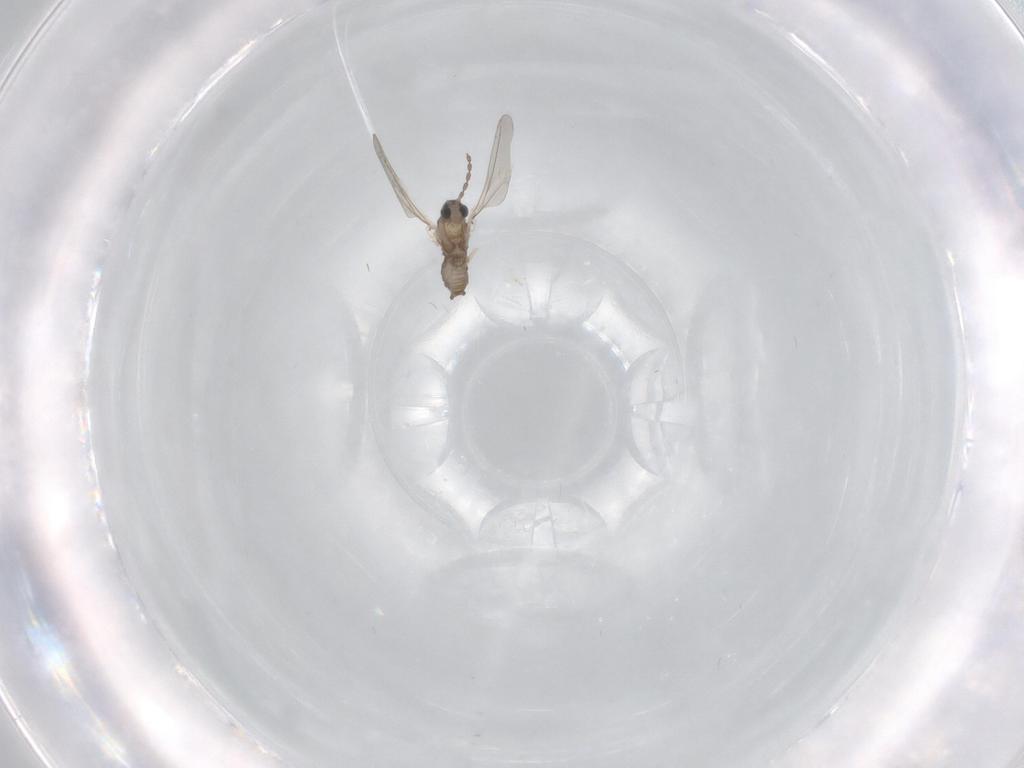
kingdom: Animalia
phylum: Arthropoda
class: Insecta
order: Diptera
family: Cecidomyiidae
